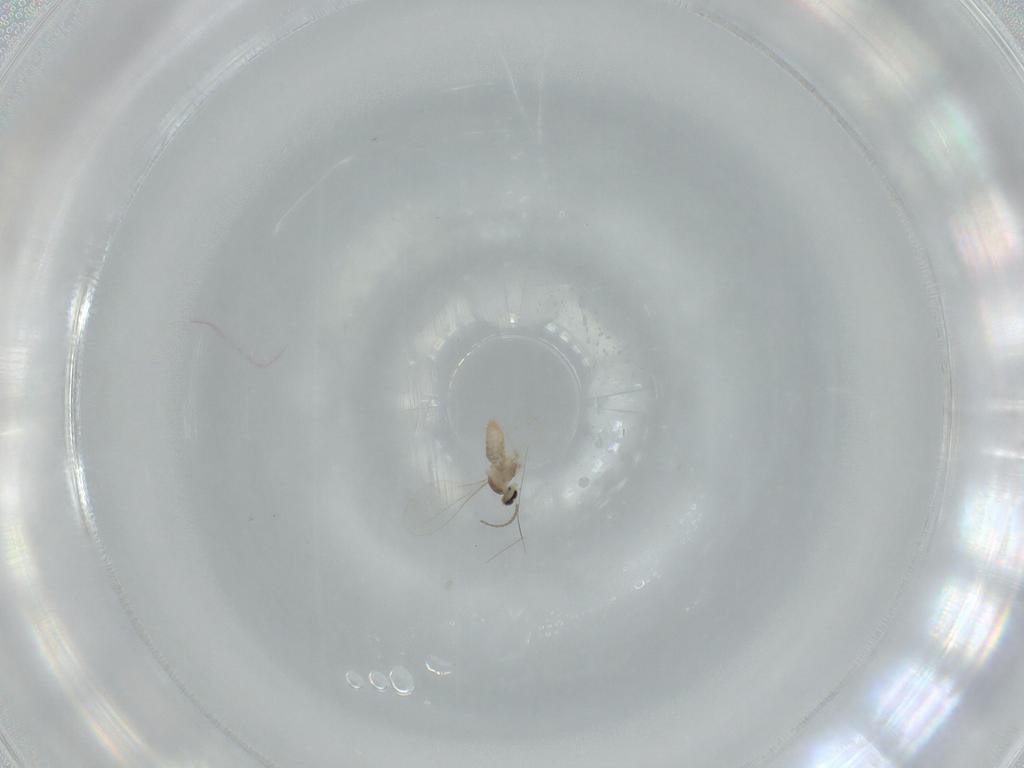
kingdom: Animalia
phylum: Arthropoda
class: Insecta
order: Diptera
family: Cecidomyiidae
